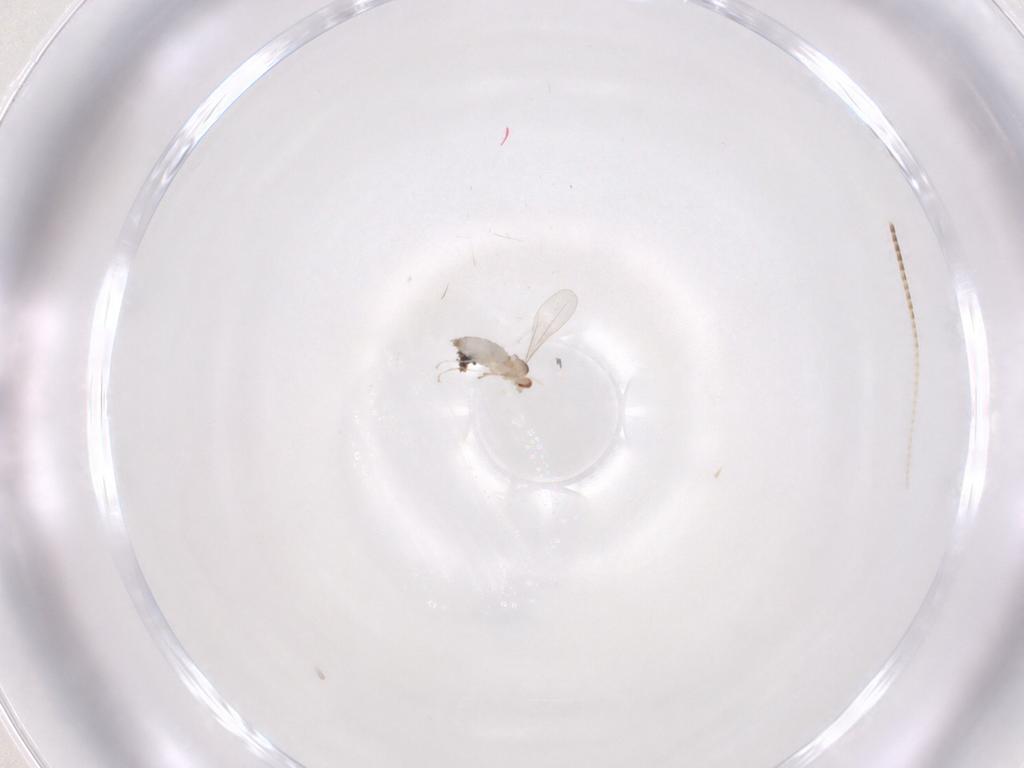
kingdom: Animalia
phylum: Arthropoda
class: Insecta
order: Diptera
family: Cecidomyiidae
